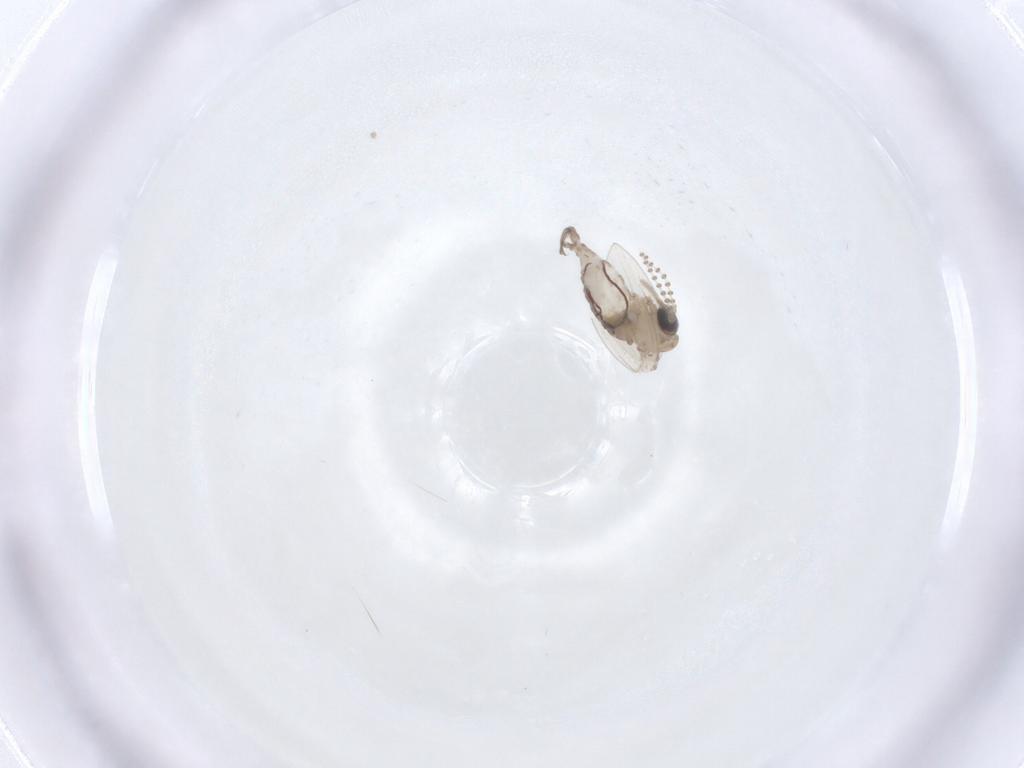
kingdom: Animalia
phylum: Arthropoda
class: Insecta
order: Diptera
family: Psychodidae
